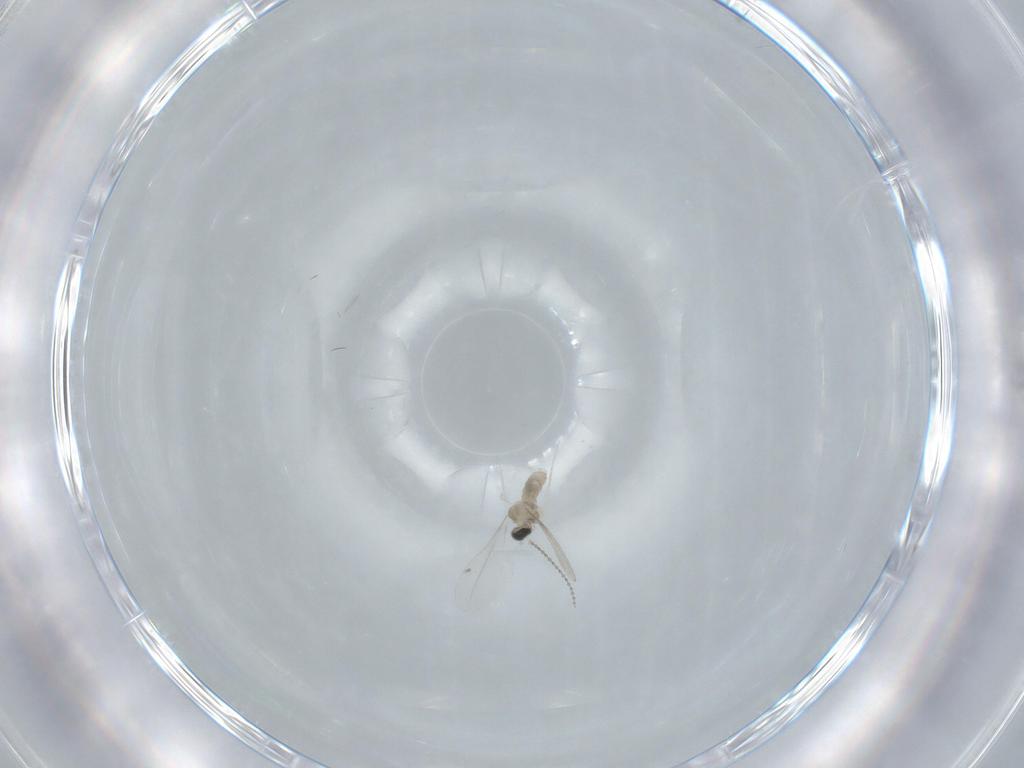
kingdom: Animalia
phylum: Arthropoda
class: Insecta
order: Diptera
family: Cecidomyiidae
